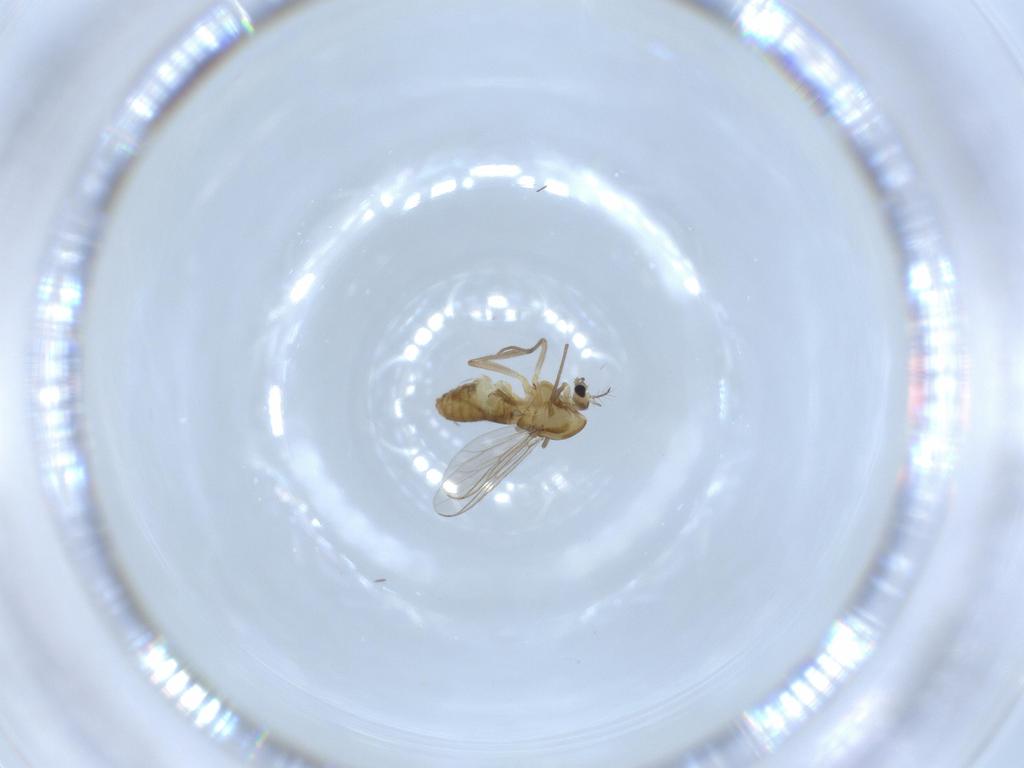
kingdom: Animalia
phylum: Arthropoda
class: Insecta
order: Diptera
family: Chironomidae
